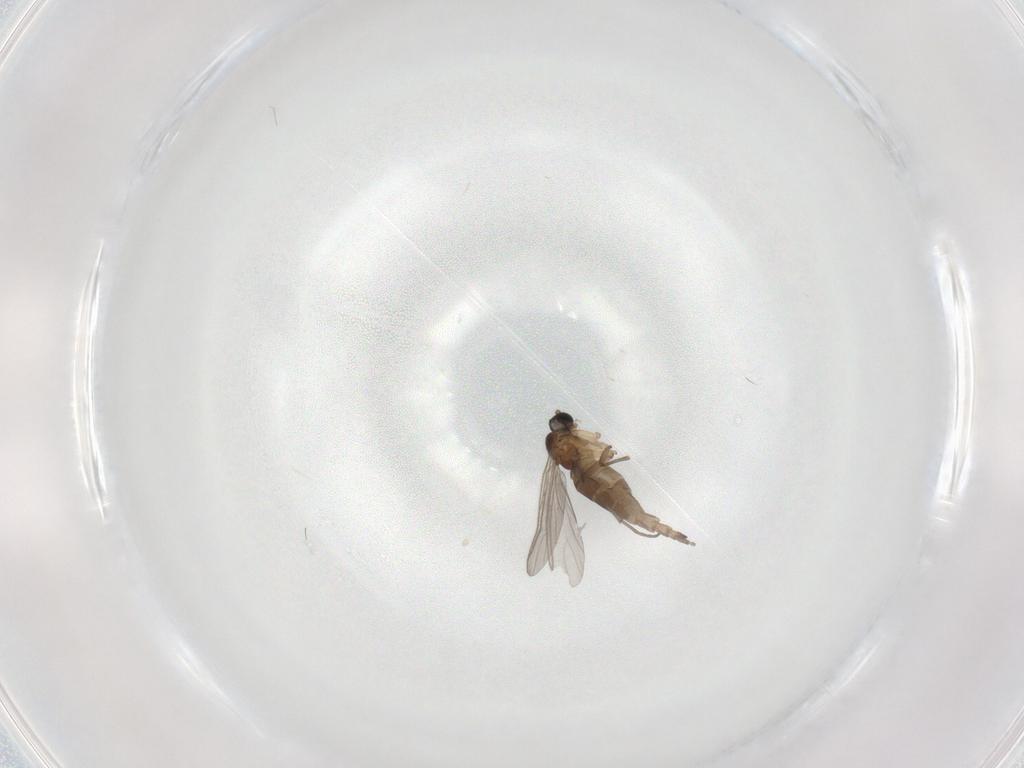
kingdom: Animalia
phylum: Arthropoda
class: Insecta
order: Diptera
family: Sciaridae
